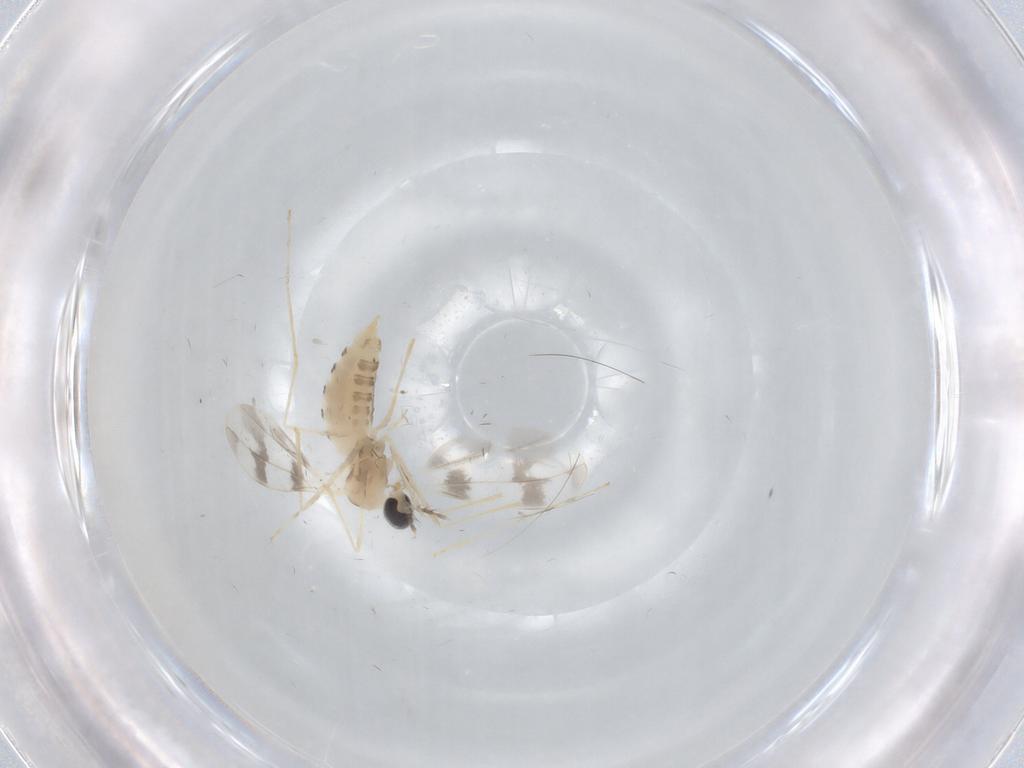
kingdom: Animalia
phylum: Arthropoda
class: Insecta
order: Diptera
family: Cecidomyiidae
